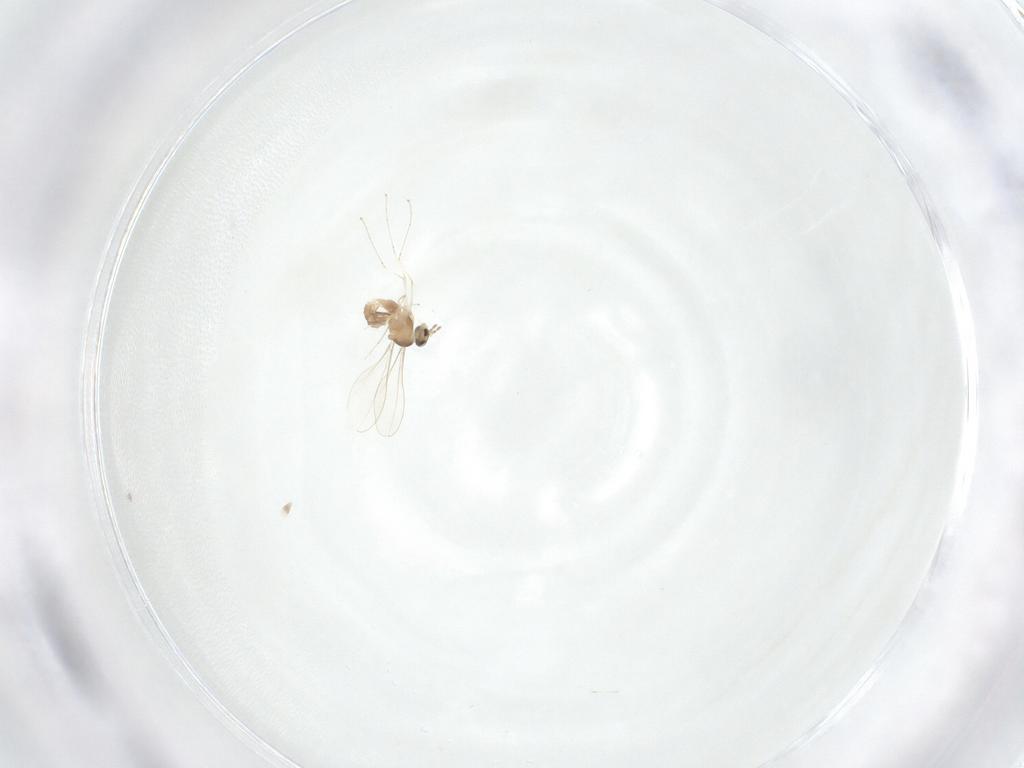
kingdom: Animalia
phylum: Arthropoda
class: Insecta
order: Diptera
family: Cecidomyiidae
